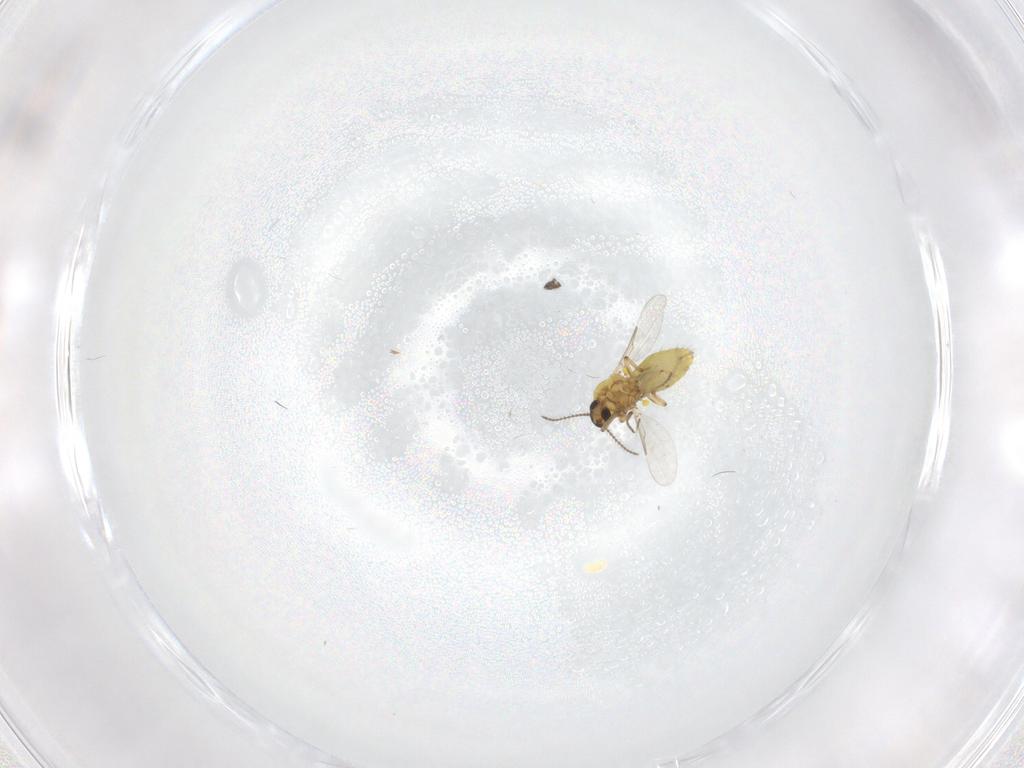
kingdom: Animalia
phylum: Arthropoda
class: Insecta
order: Diptera
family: Ceratopogonidae
